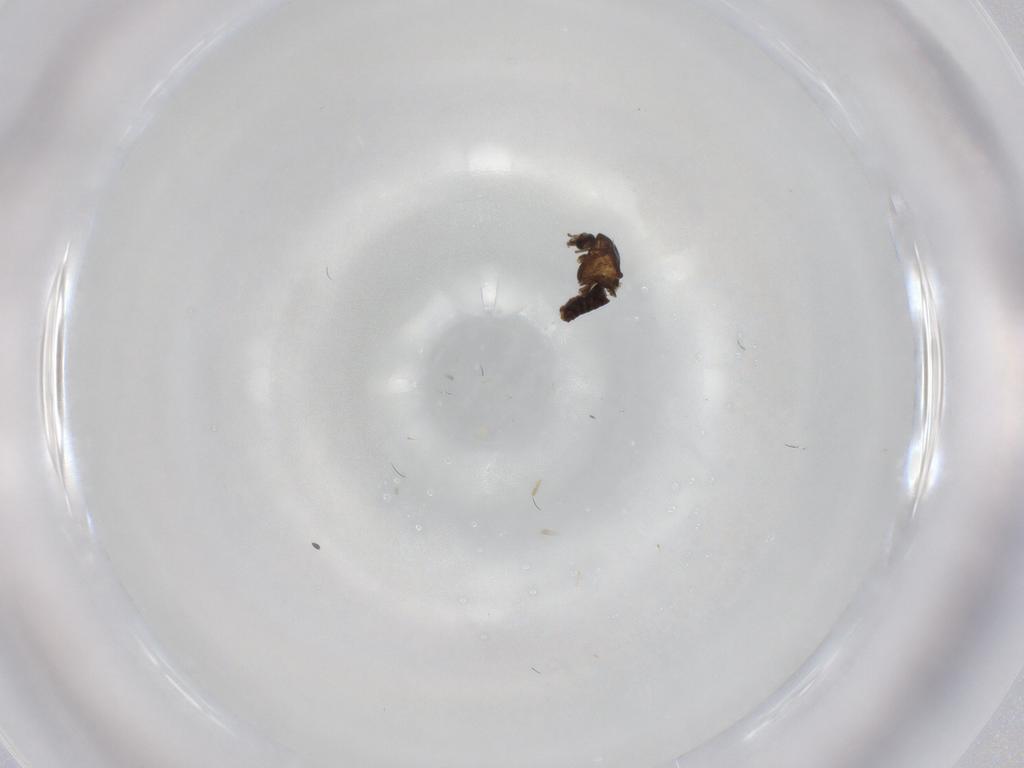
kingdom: Animalia
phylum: Arthropoda
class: Insecta
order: Diptera
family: Chironomidae
